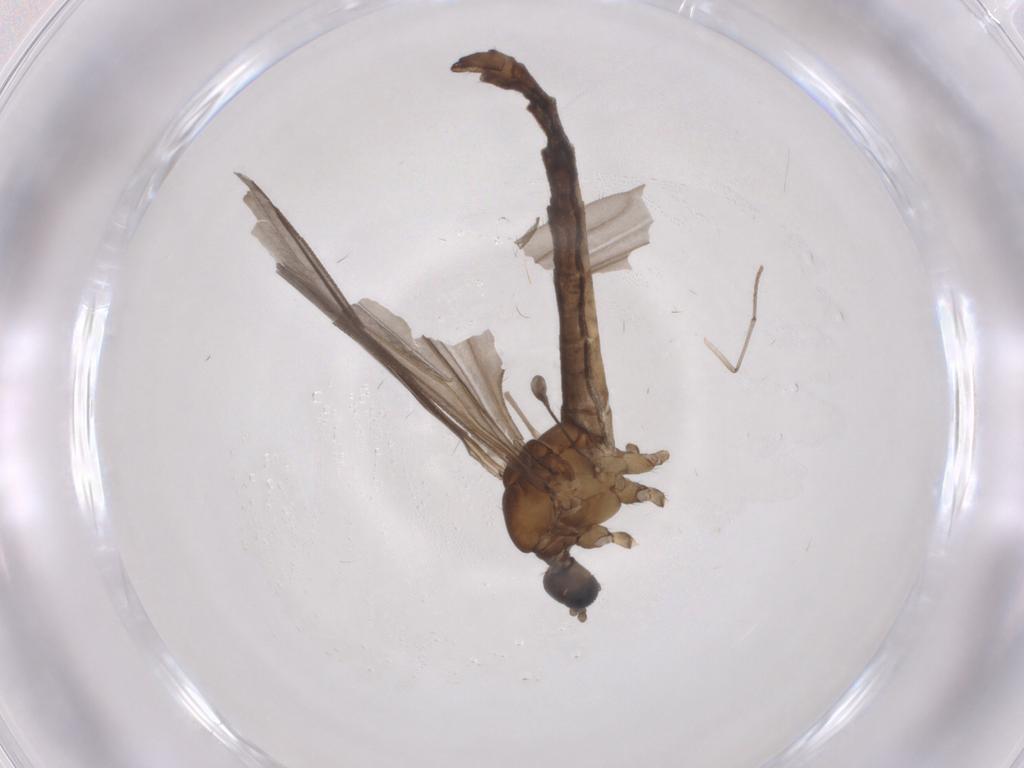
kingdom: Animalia
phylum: Arthropoda
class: Insecta
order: Diptera
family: Psychodidae
